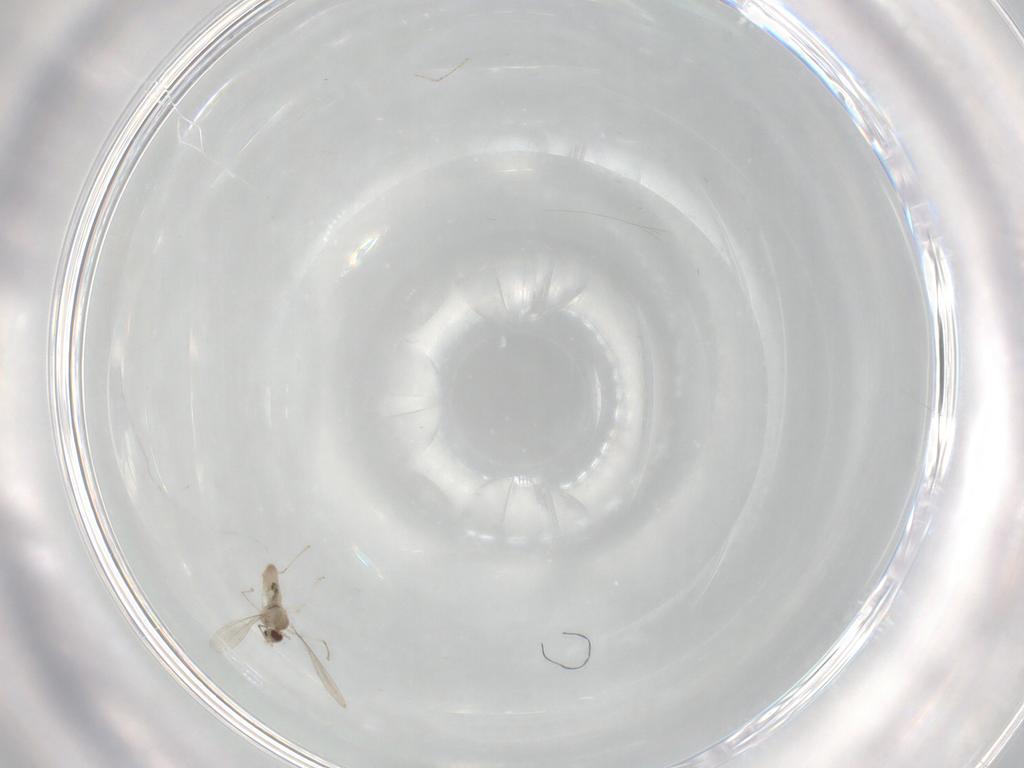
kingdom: Animalia
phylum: Arthropoda
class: Insecta
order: Diptera
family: Cecidomyiidae
